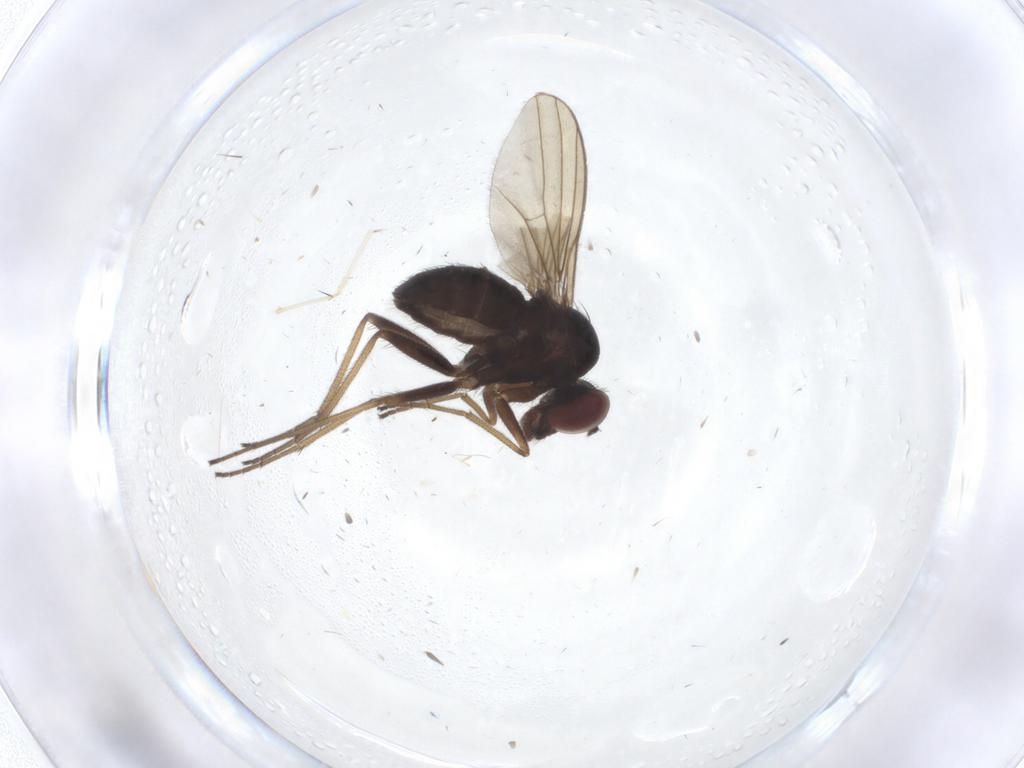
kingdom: Animalia
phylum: Arthropoda
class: Insecta
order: Diptera
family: Dolichopodidae
